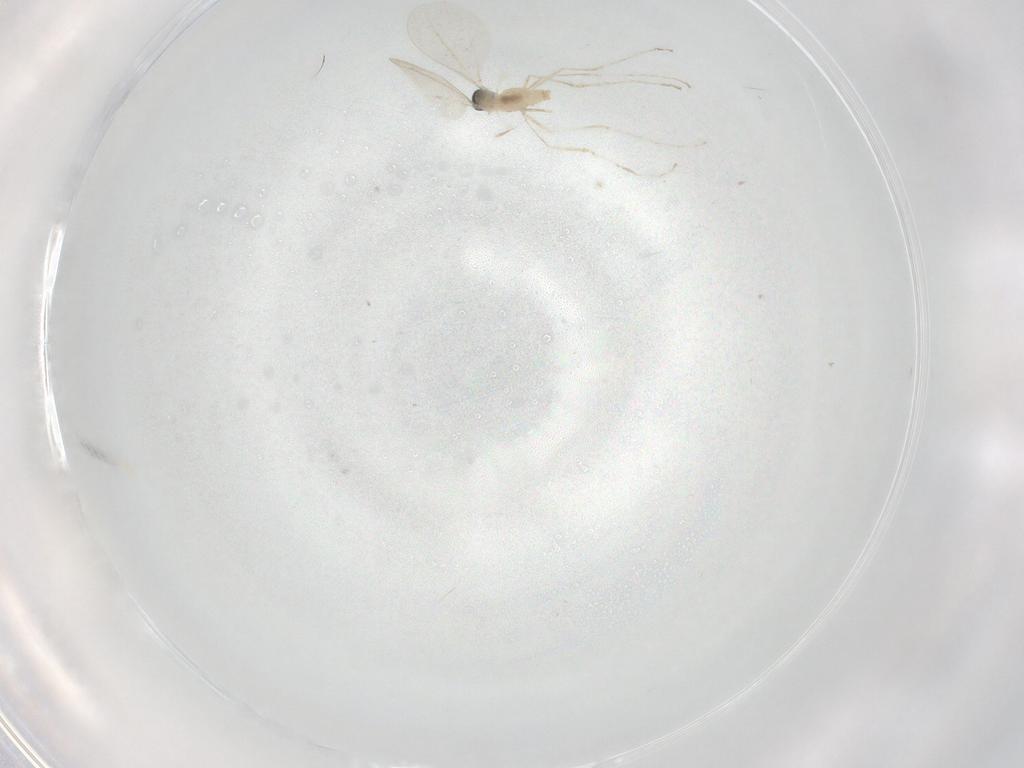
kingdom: Animalia
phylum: Arthropoda
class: Insecta
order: Diptera
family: Cecidomyiidae
